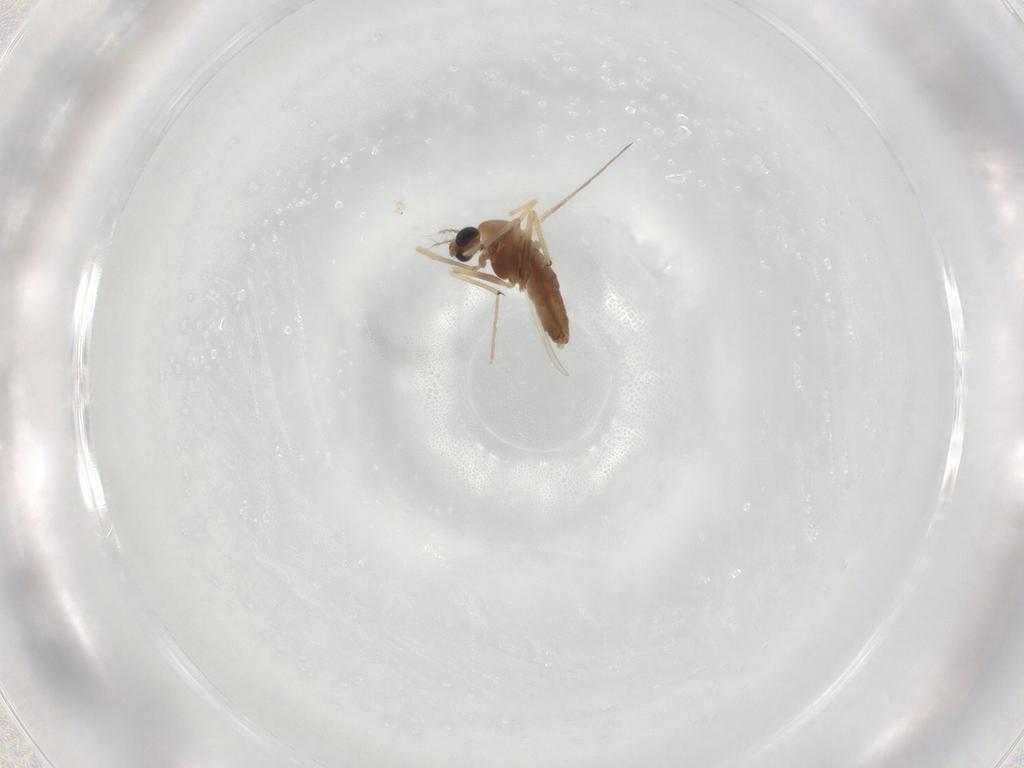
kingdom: Animalia
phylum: Arthropoda
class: Insecta
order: Diptera
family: Chironomidae
